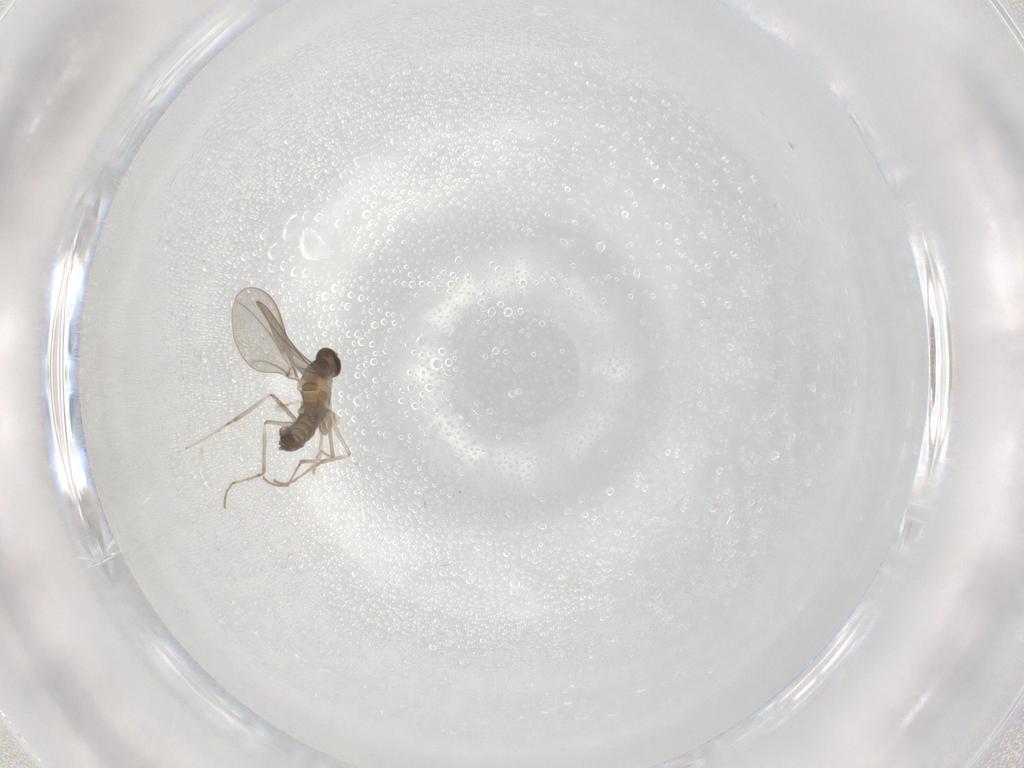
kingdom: Animalia
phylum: Arthropoda
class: Insecta
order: Diptera
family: Cecidomyiidae
